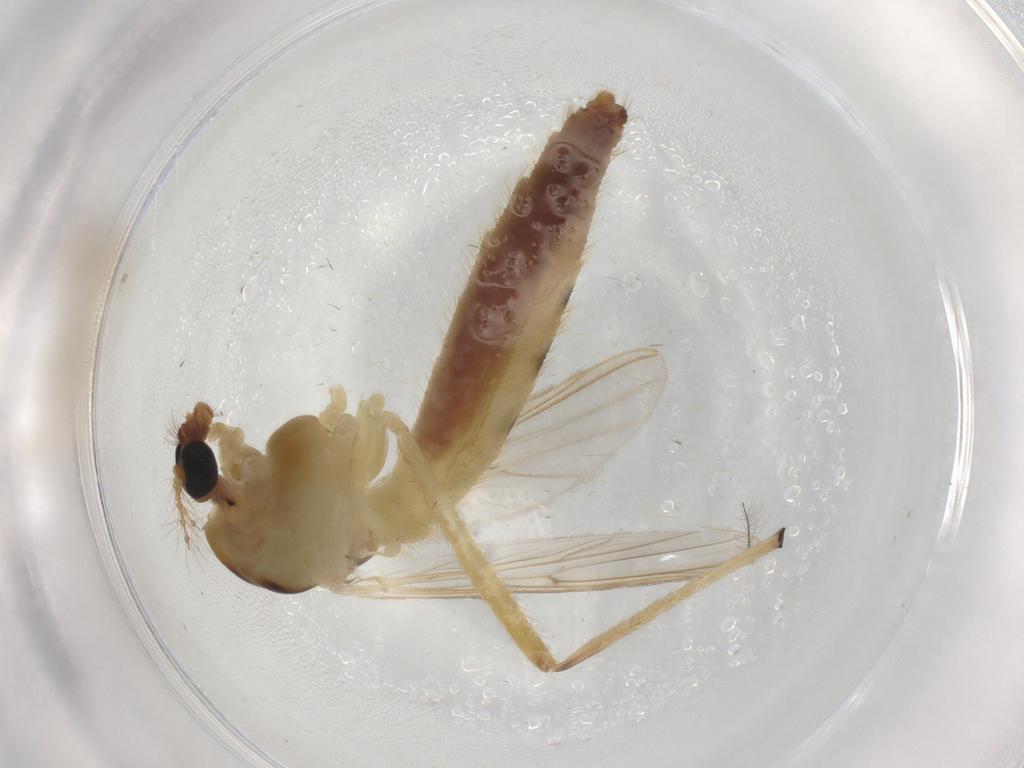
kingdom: Animalia
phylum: Arthropoda
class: Insecta
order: Diptera
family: Chironomidae
